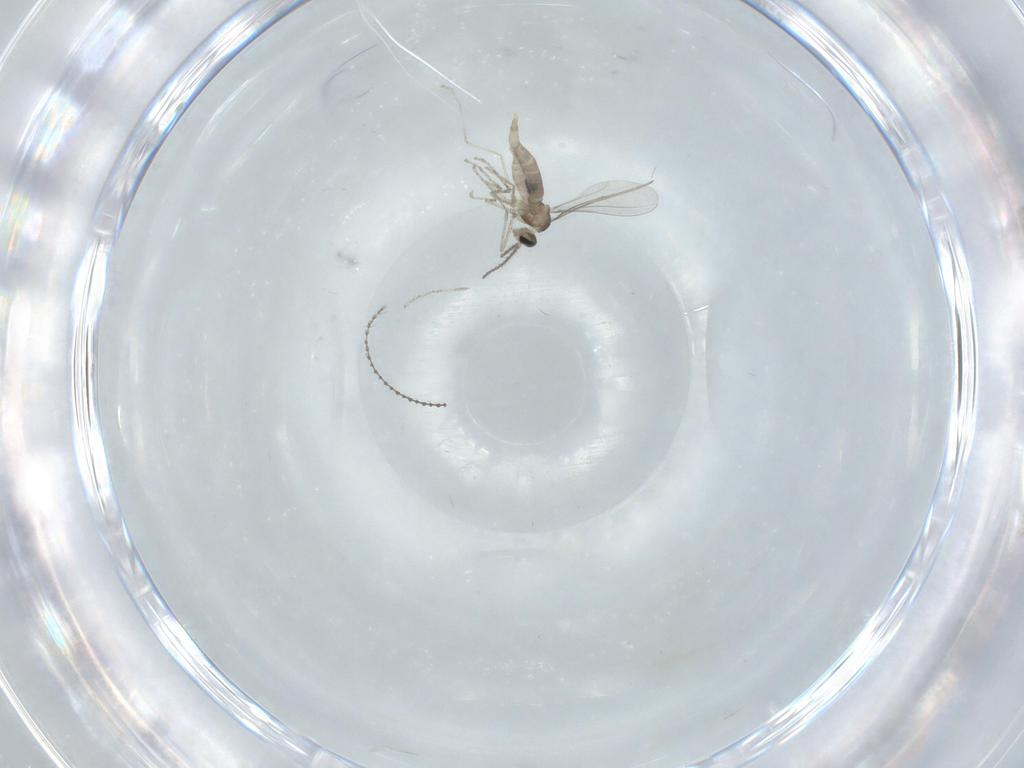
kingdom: Animalia
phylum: Arthropoda
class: Insecta
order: Diptera
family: Cecidomyiidae
